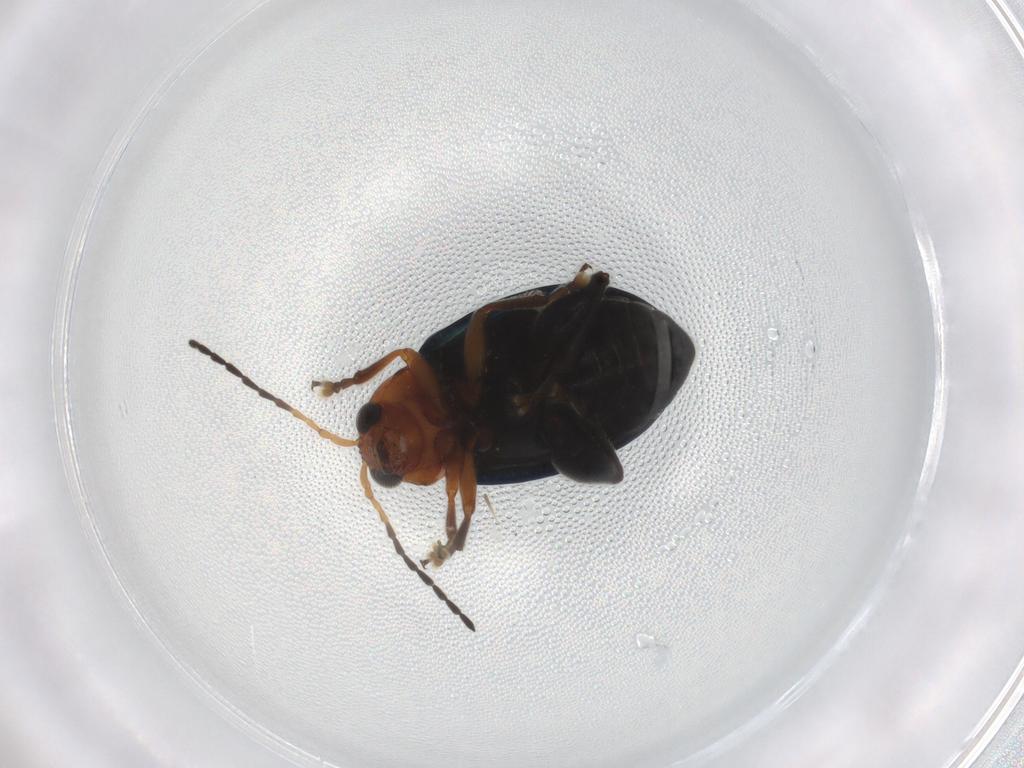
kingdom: Animalia
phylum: Arthropoda
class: Insecta
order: Coleoptera
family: Chrysomelidae
